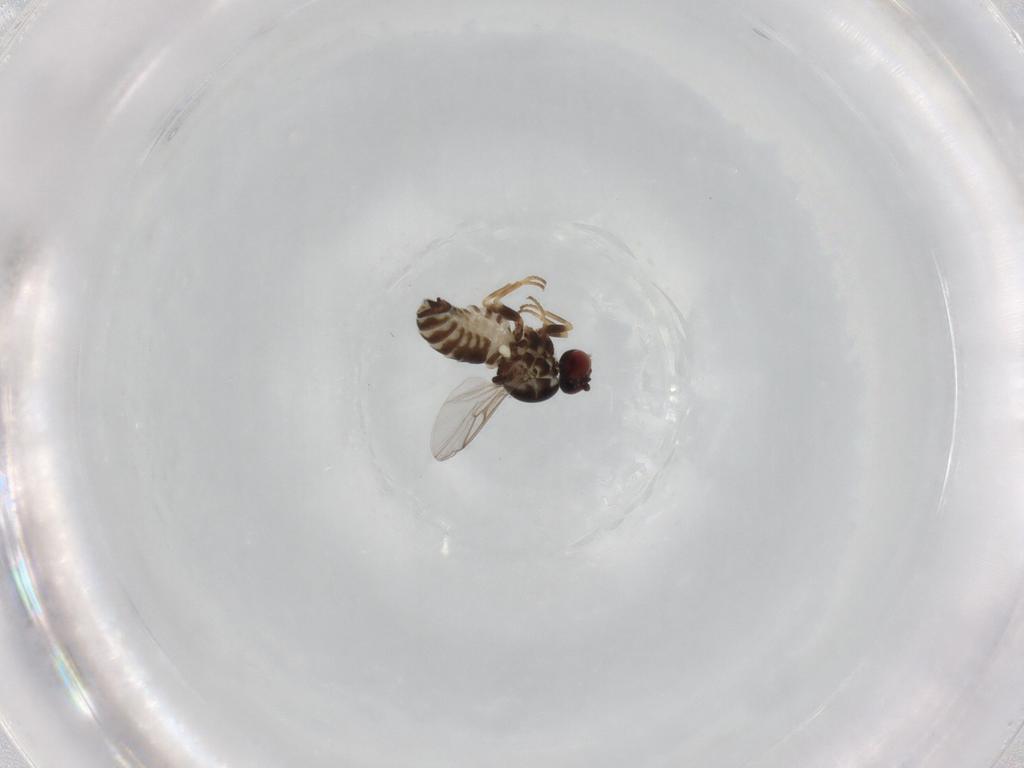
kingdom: Animalia
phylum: Arthropoda
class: Insecta
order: Diptera
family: Bombyliidae
